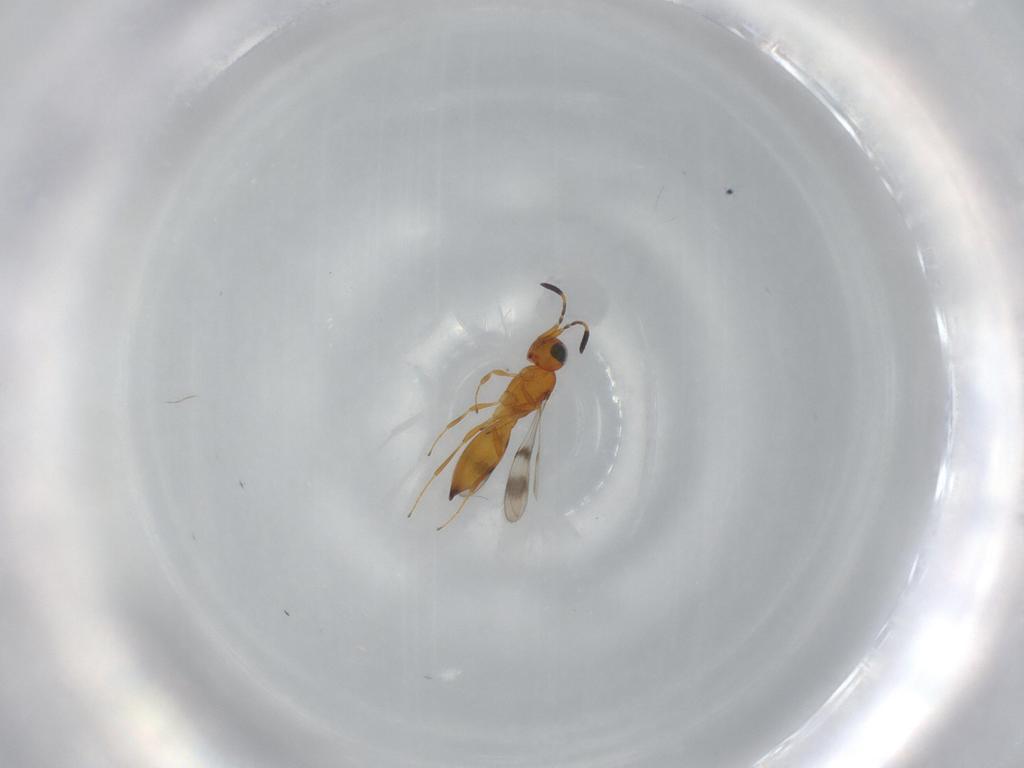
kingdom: Animalia
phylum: Arthropoda
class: Insecta
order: Hymenoptera
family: Scelionidae
